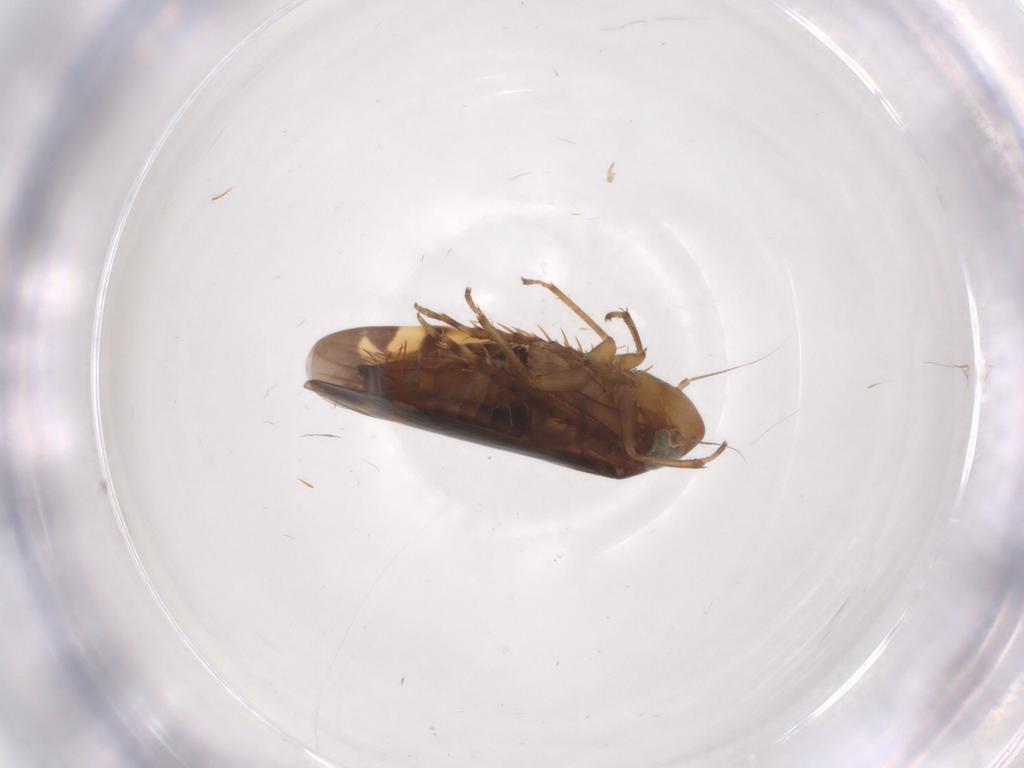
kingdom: Animalia
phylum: Arthropoda
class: Insecta
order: Hemiptera
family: Cicadellidae
